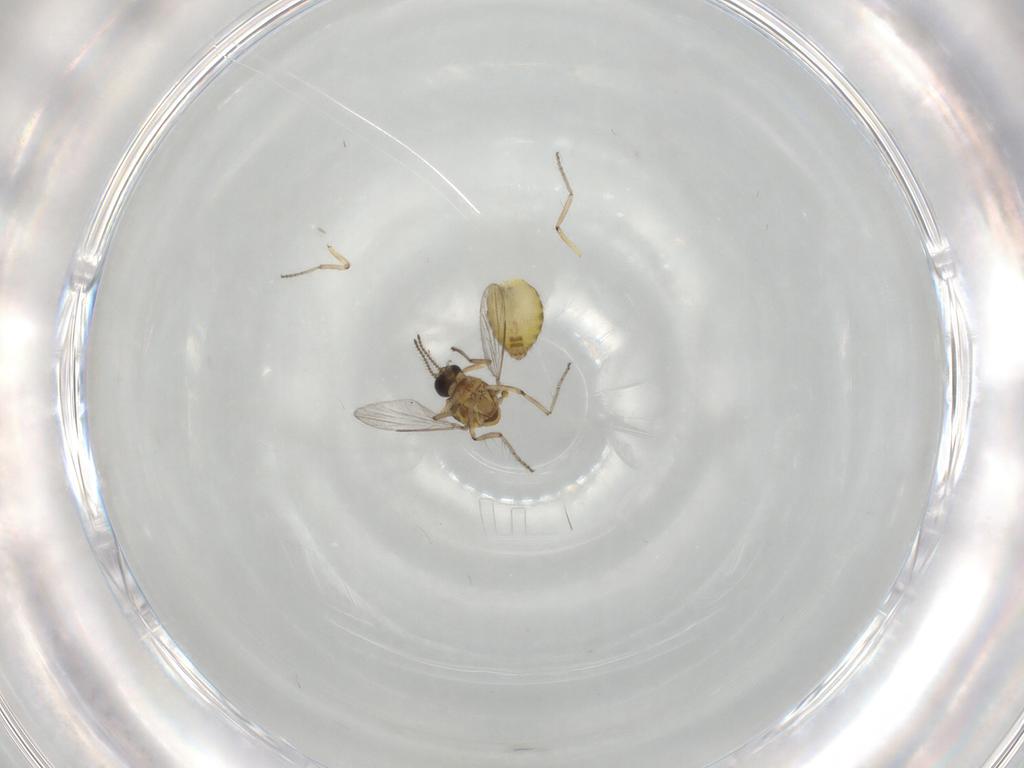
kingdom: Animalia
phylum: Arthropoda
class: Insecta
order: Diptera
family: Ceratopogonidae
